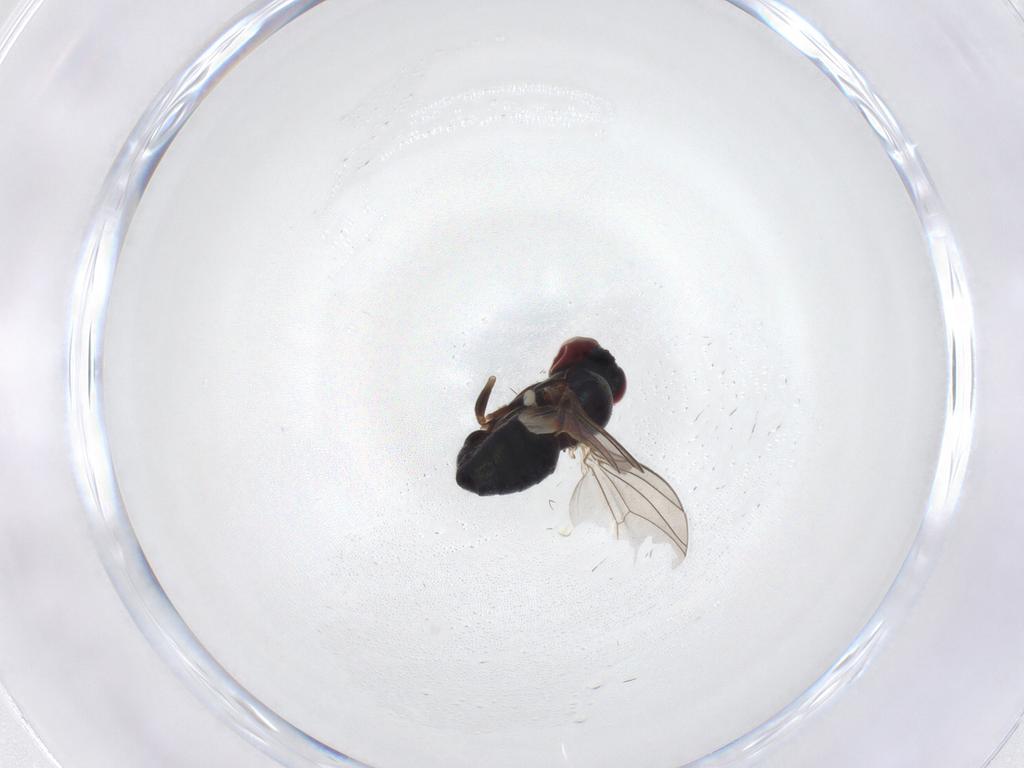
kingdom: Animalia
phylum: Arthropoda
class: Insecta
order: Diptera
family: Dolichopodidae
